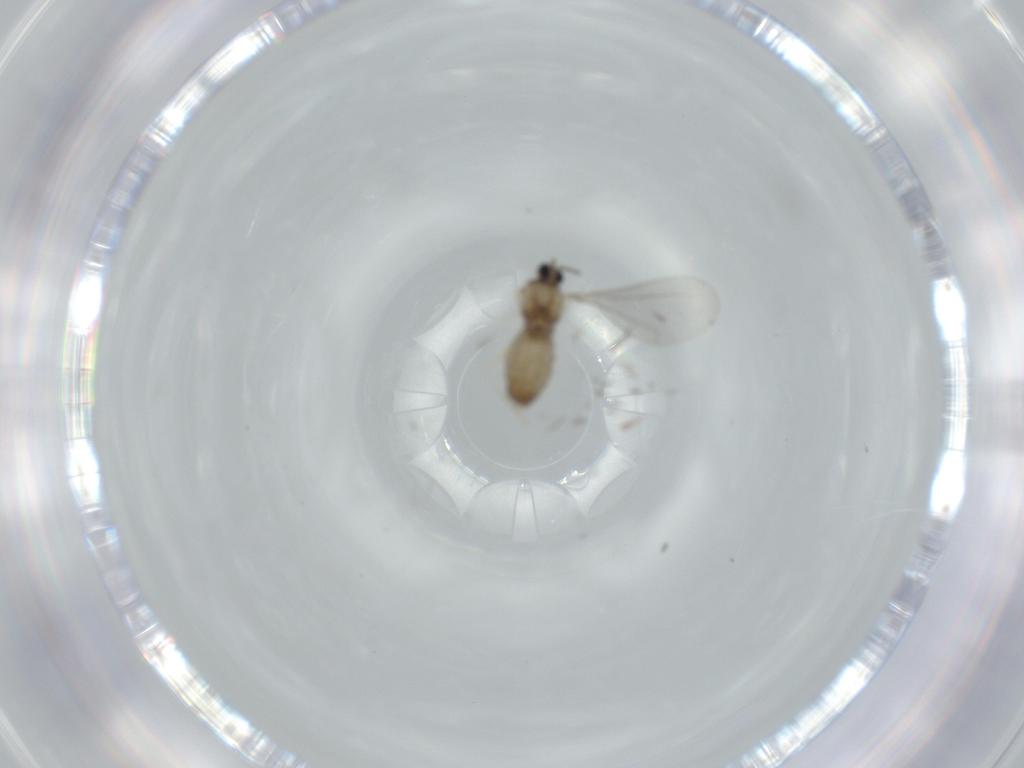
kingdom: Animalia
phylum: Arthropoda
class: Insecta
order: Diptera
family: Cecidomyiidae
